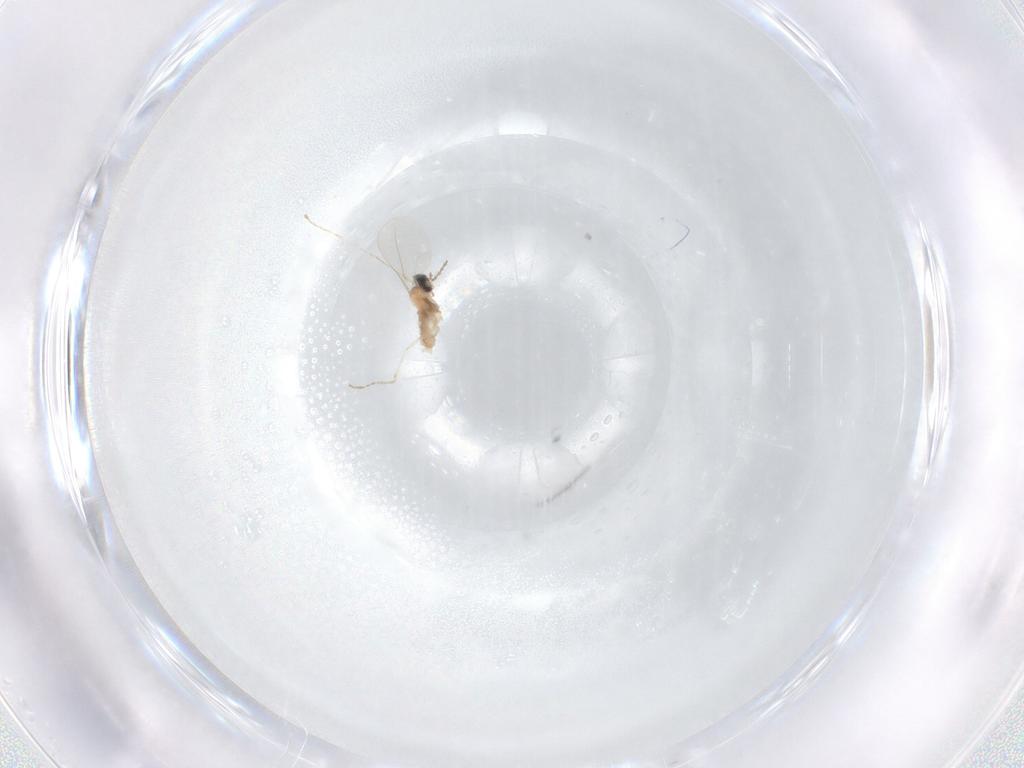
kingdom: Animalia
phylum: Arthropoda
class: Insecta
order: Diptera
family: Bibionidae
